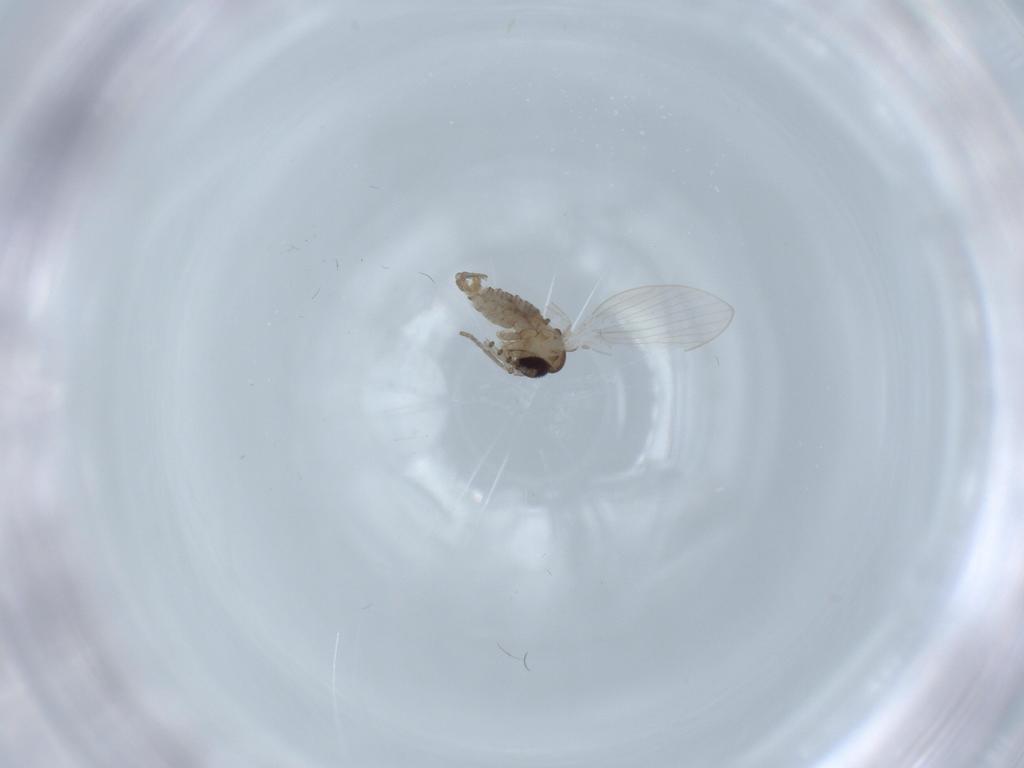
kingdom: Animalia
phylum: Arthropoda
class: Insecta
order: Diptera
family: Psychodidae
